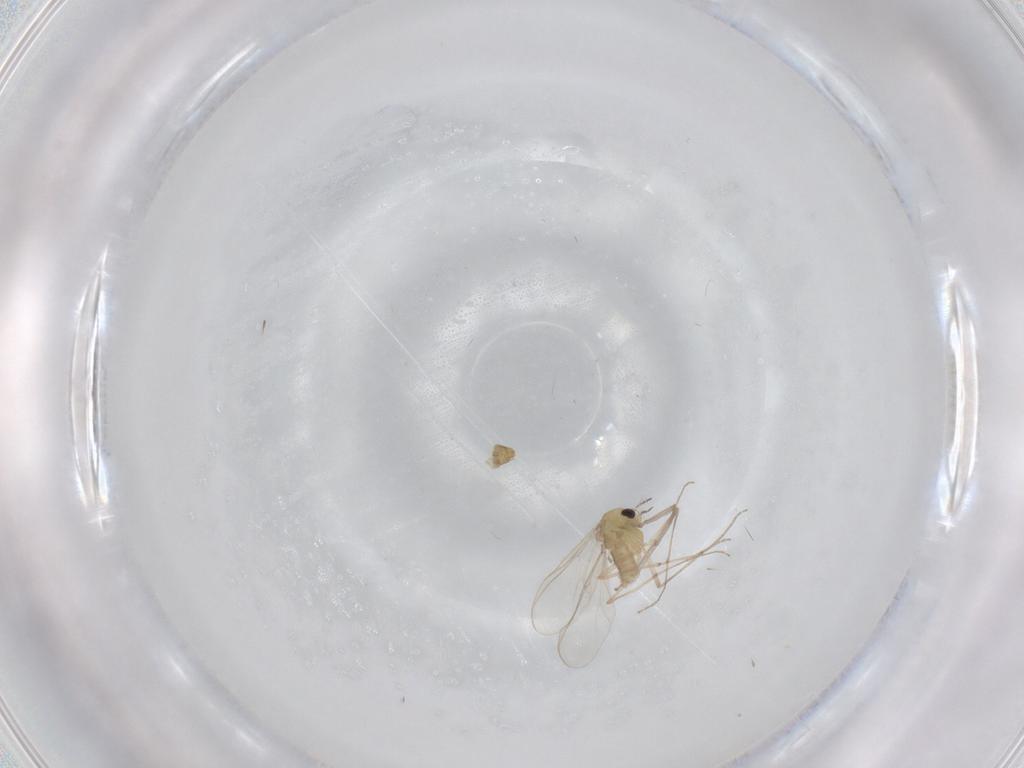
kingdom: Animalia
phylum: Arthropoda
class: Insecta
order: Diptera
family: Chironomidae
